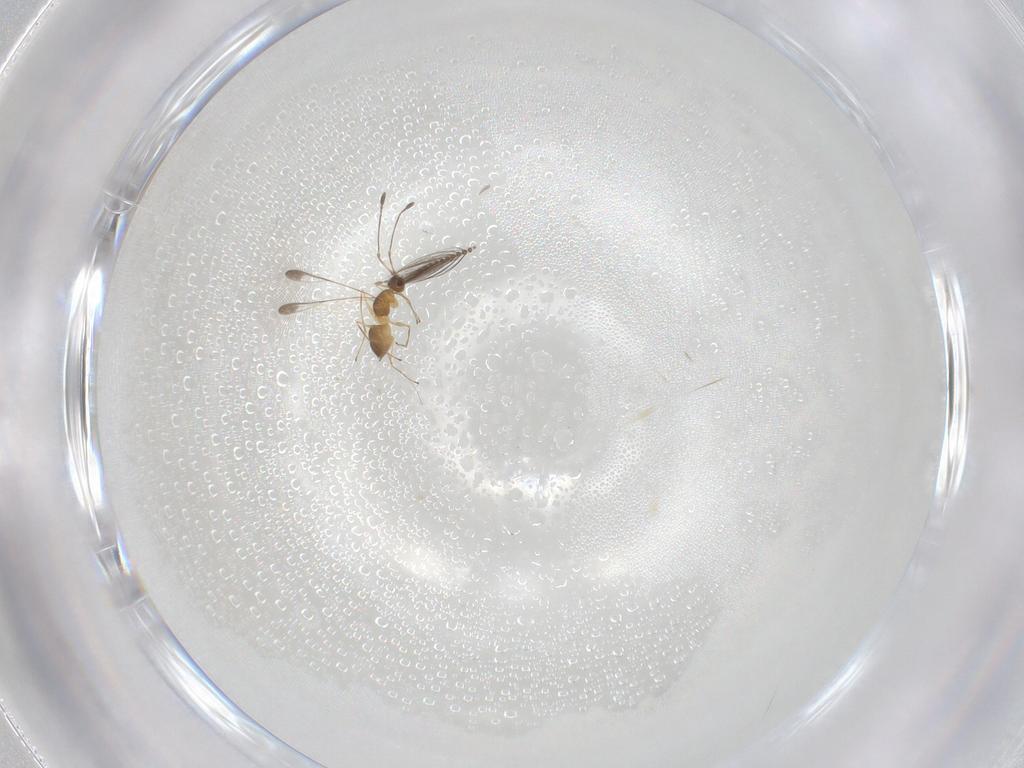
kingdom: Animalia
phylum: Arthropoda
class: Insecta
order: Hymenoptera
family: Mymaridae
